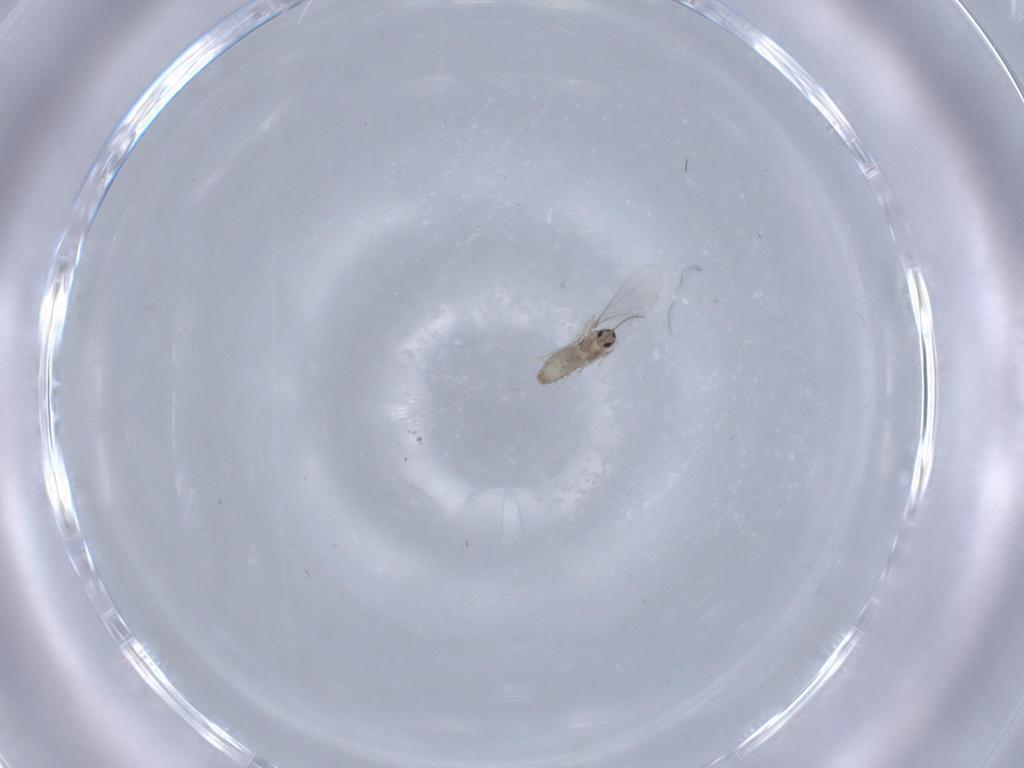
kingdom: Animalia
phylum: Arthropoda
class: Insecta
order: Diptera
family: Cecidomyiidae
